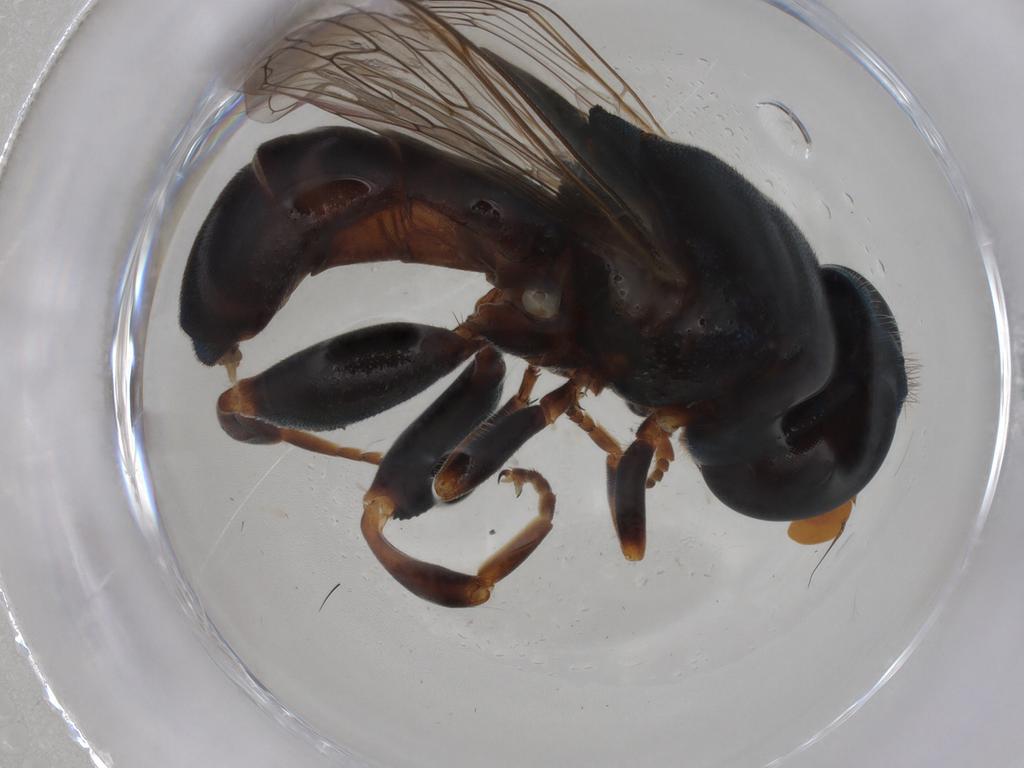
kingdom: Animalia
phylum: Arthropoda
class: Insecta
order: Diptera
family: Syrphidae
